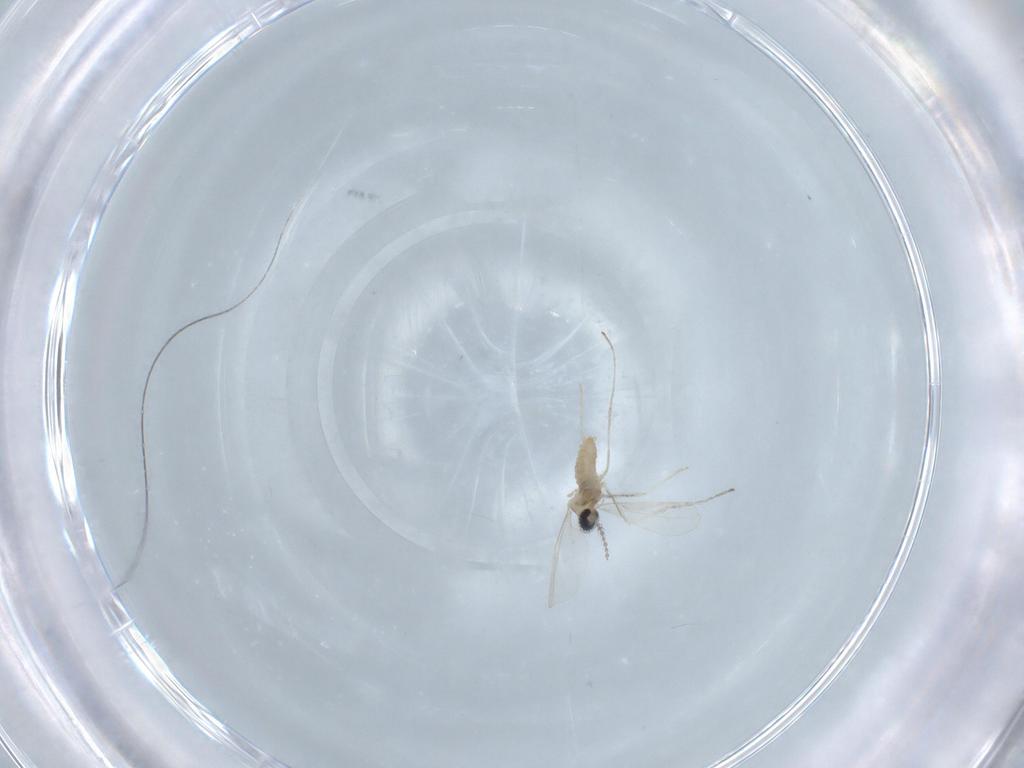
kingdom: Animalia
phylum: Arthropoda
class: Insecta
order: Diptera
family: Cecidomyiidae
